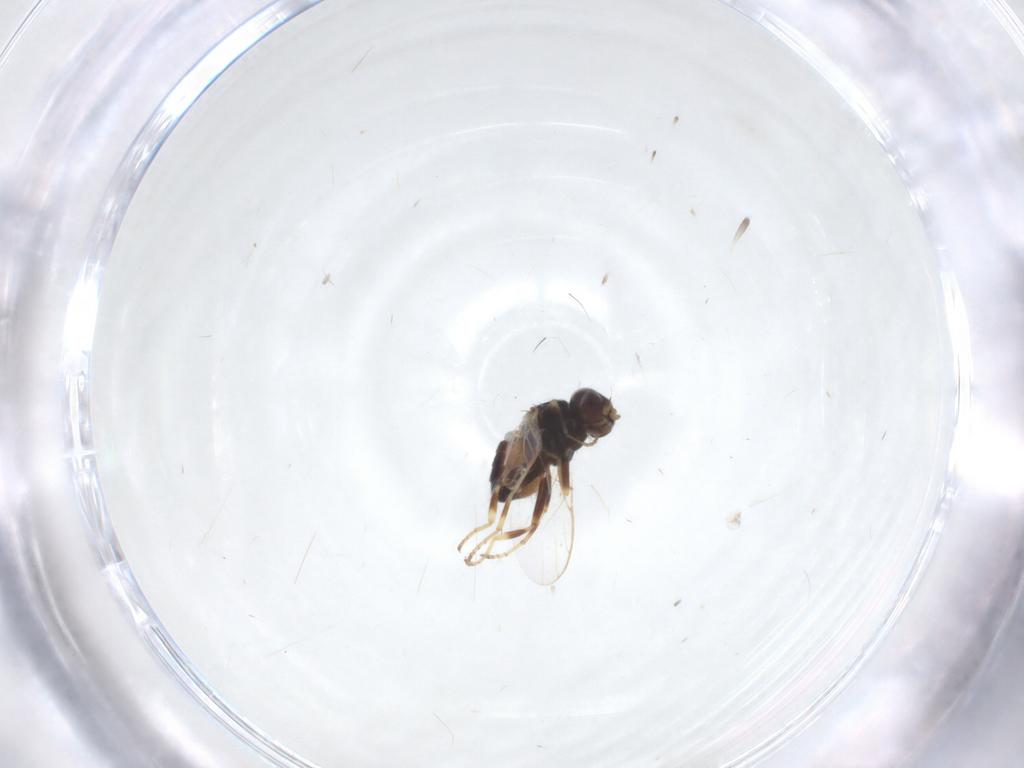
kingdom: Animalia
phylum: Arthropoda
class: Insecta
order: Diptera
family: Chloropidae
